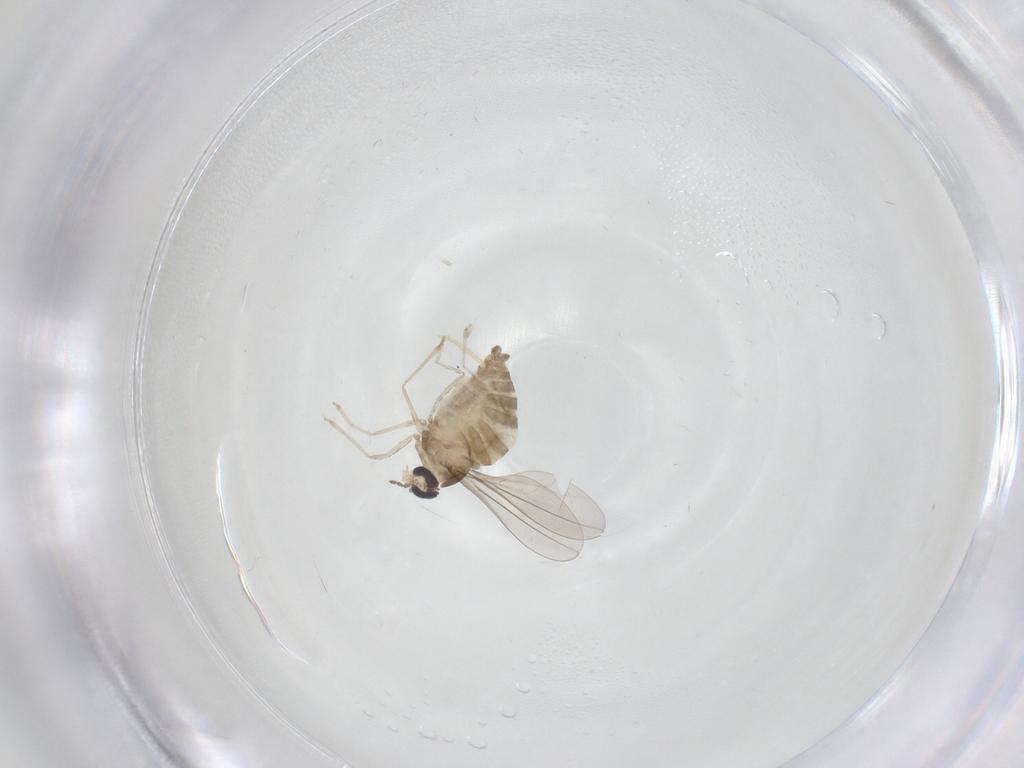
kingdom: Animalia
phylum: Arthropoda
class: Insecta
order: Diptera
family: Cecidomyiidae
